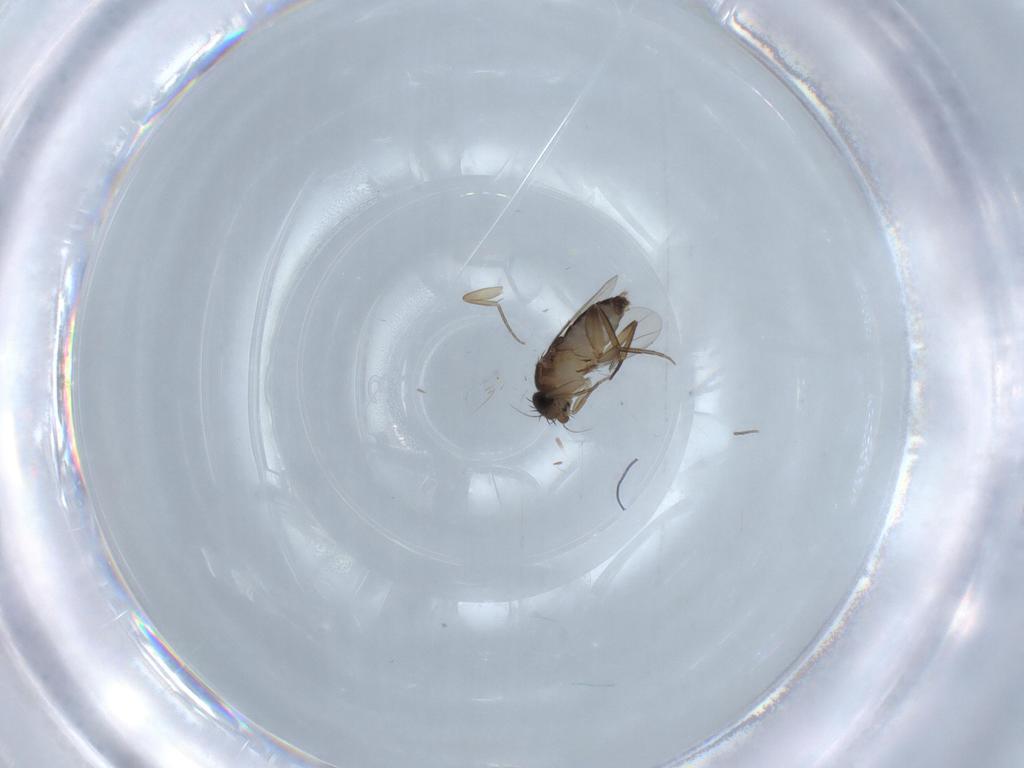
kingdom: Animalia
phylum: Arthropoda
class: Insecta
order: Diptera
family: Chironomidae
